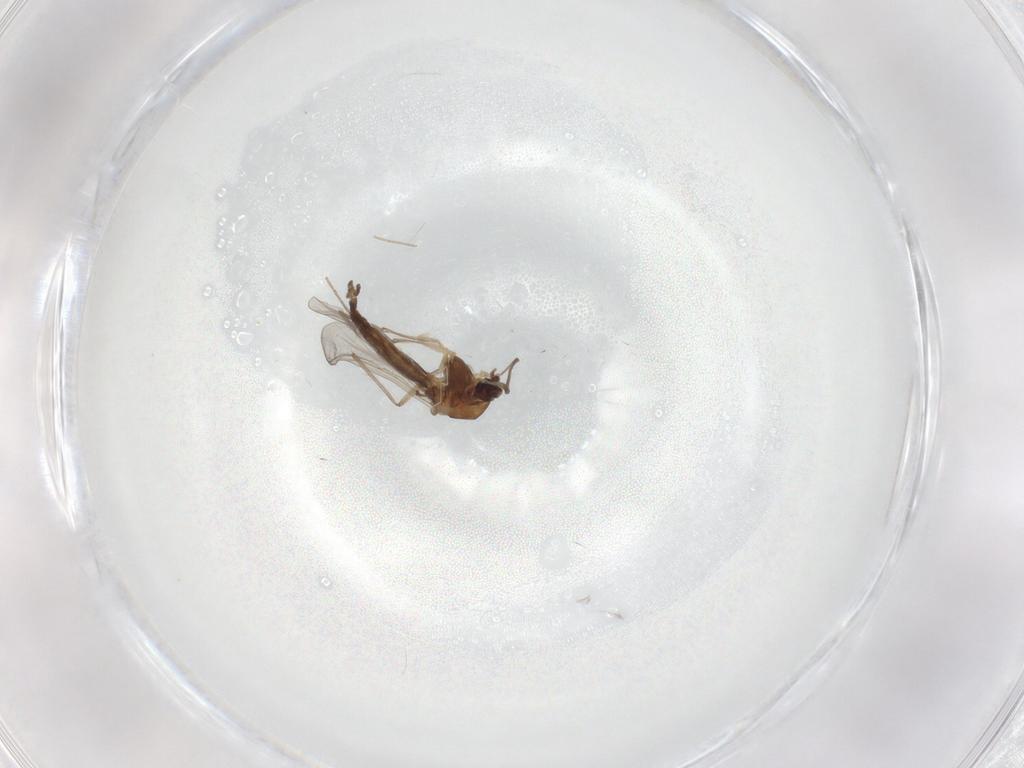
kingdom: Animalia
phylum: Arthropoda
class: Insecta
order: Diptera
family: Chironomidae
